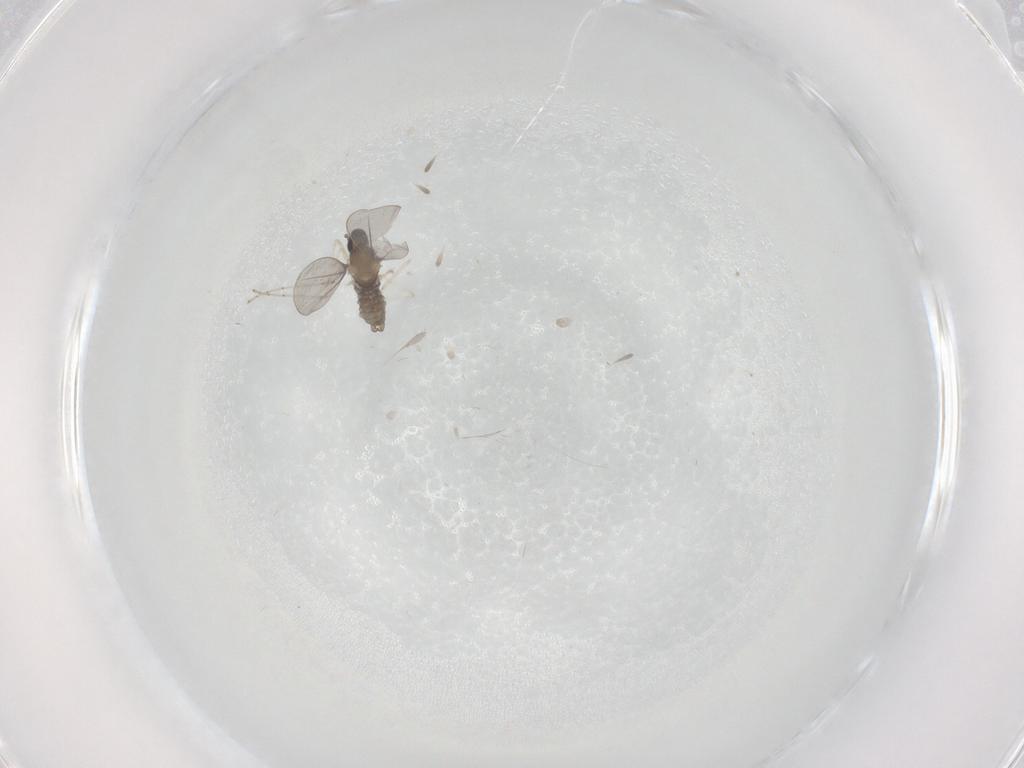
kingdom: Animalia
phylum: Arthropoda
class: Insecta
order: Diptera
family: Cecidomyiidae
